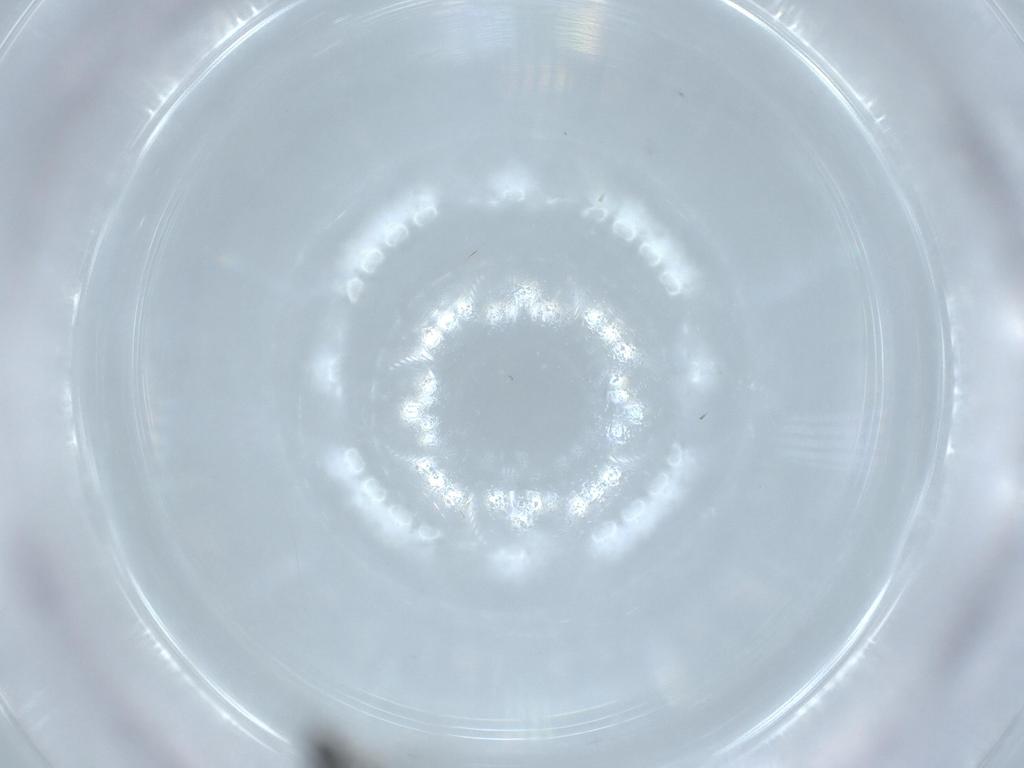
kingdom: Animalia
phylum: Arthropoda
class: Insecta
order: Hymenoptera
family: Scelionidae
